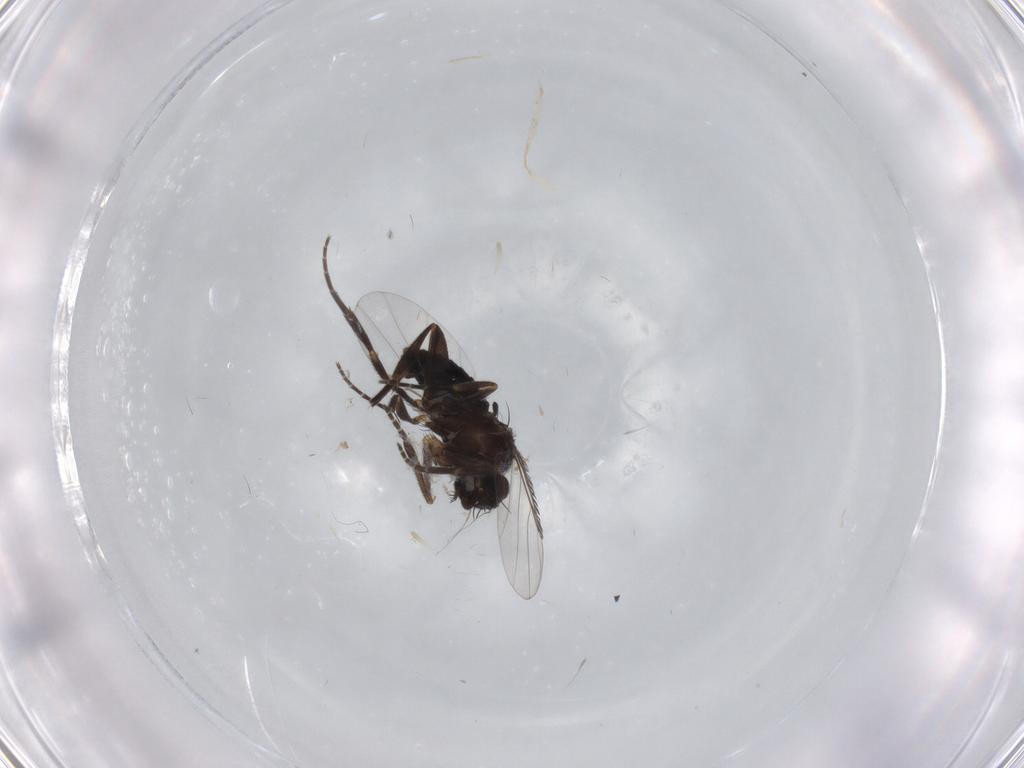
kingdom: Animalia
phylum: Arthropoda
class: Insecta
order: Diptera
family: Phoridae
